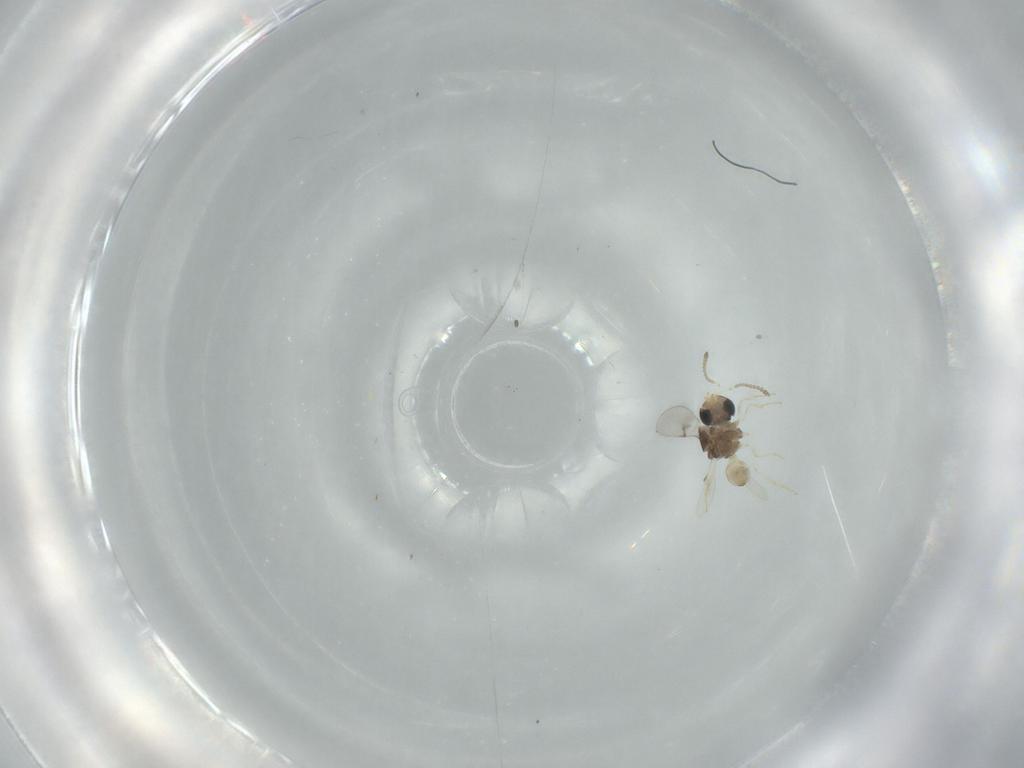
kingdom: Animalia
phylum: Arthropoda
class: Insecta
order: Hymenoptera
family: Scelionidae
